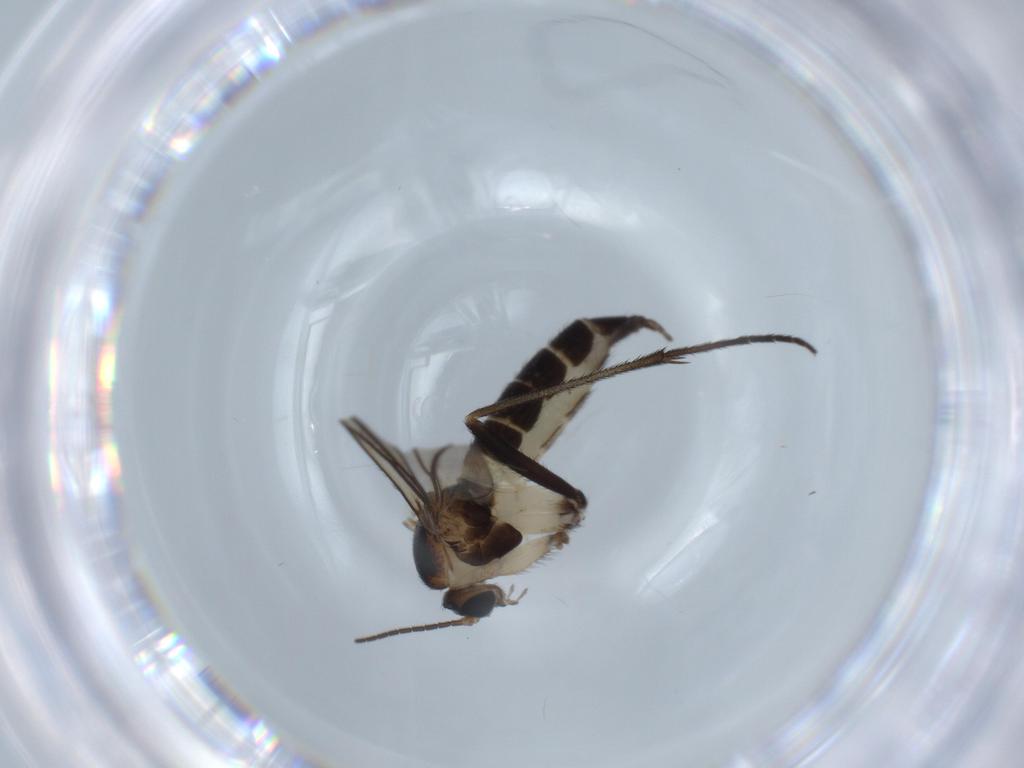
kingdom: Animalia
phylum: Arthropoda
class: Insecta
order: Diptera
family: Sciaridae
